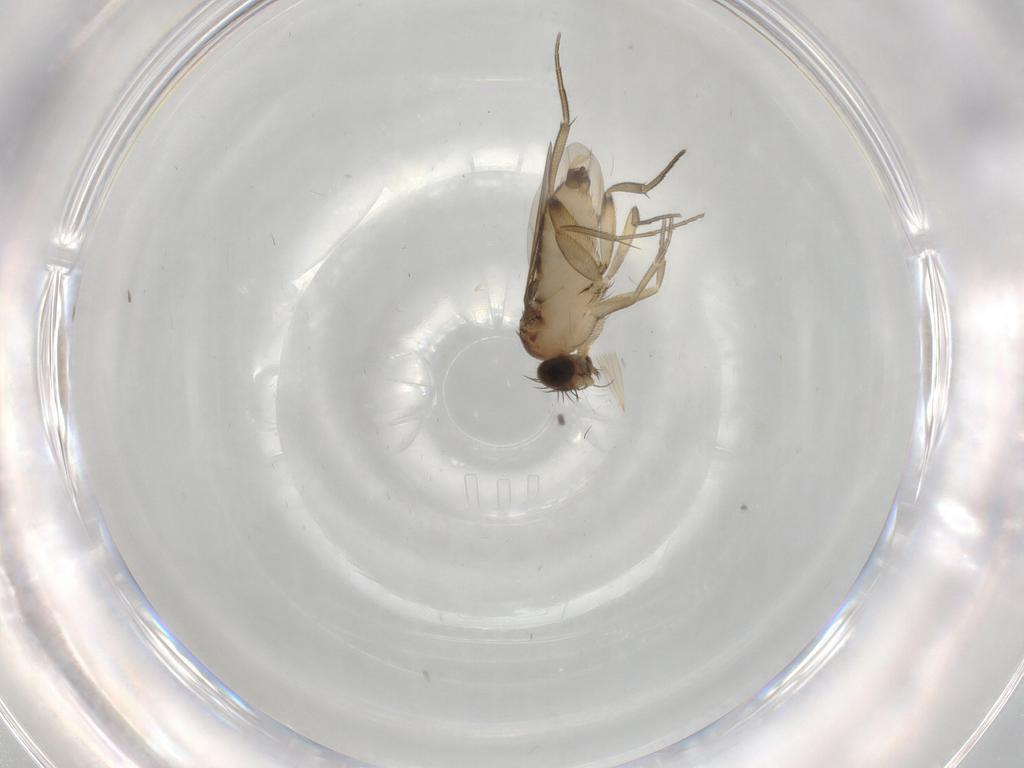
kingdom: Animalia
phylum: Arthropoda
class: Insecta
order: Diptera
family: Phoridae
